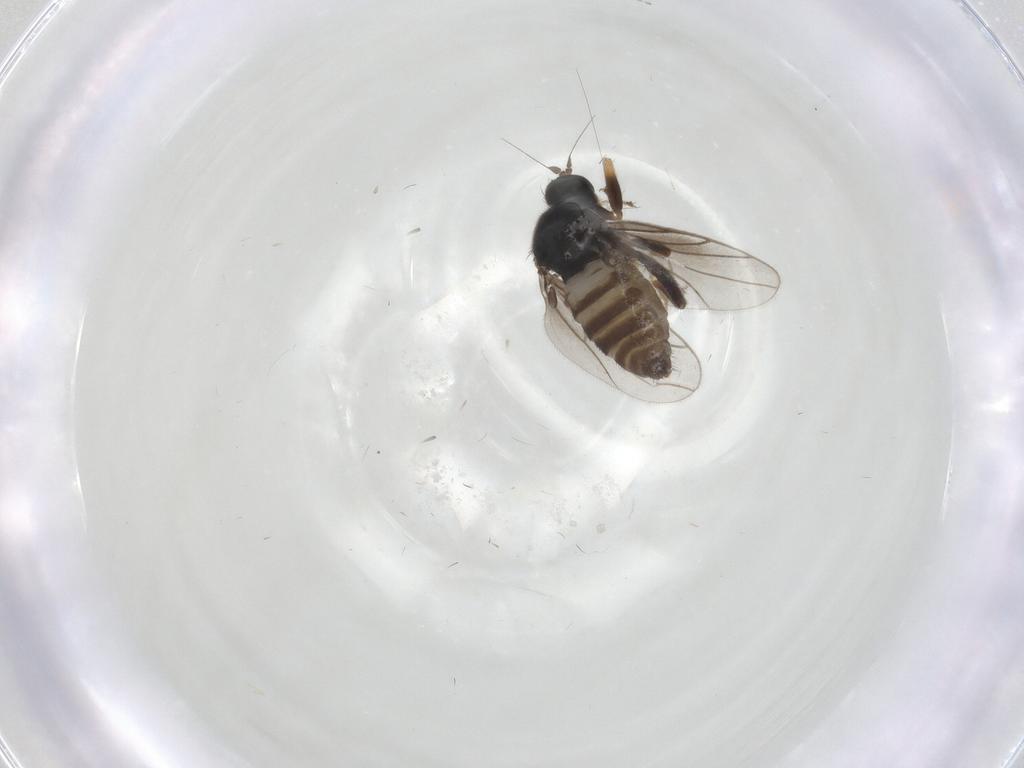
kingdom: Animalia
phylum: Arthropoda
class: Insecta
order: Diptera
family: Hybotidae
